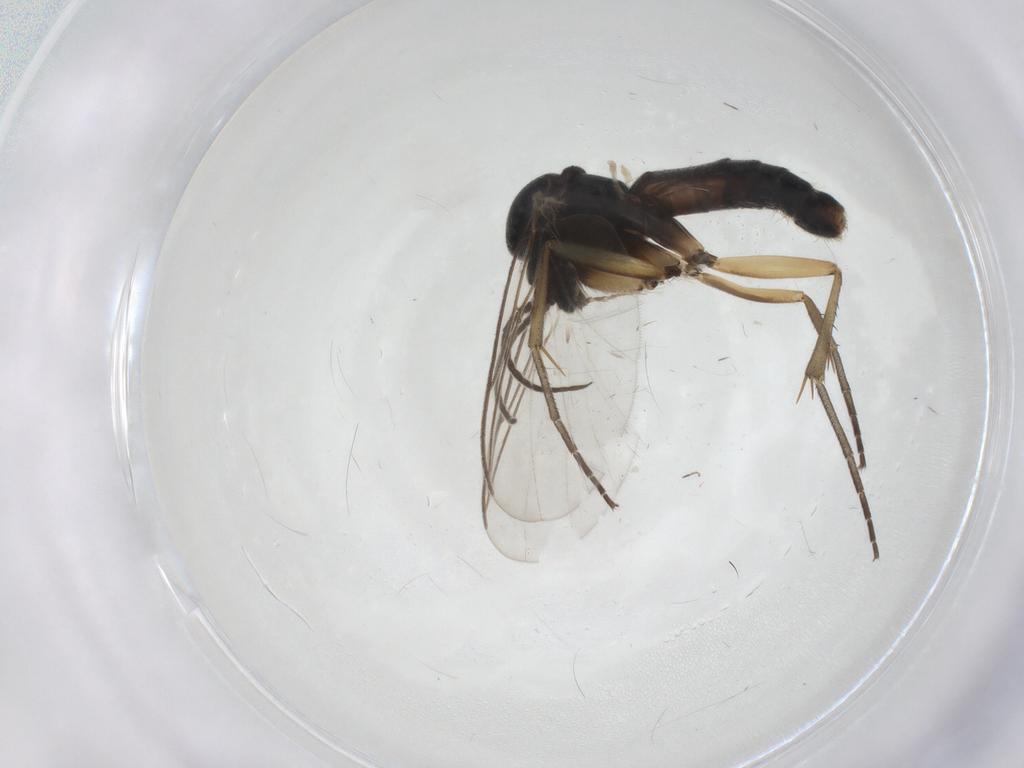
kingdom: Animalia
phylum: Arthropoda
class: Insecta
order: Diptera
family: Mycetophilidae
